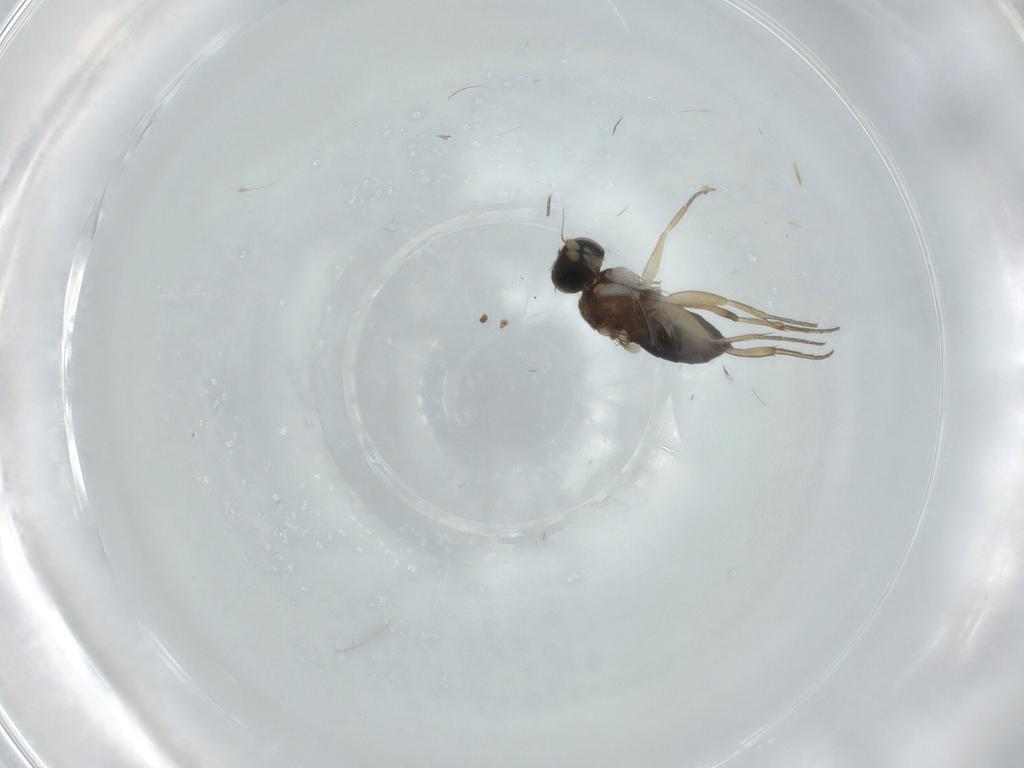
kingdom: Animalia
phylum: Arthropoda
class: Insecta
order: Diptera
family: Phoridae
